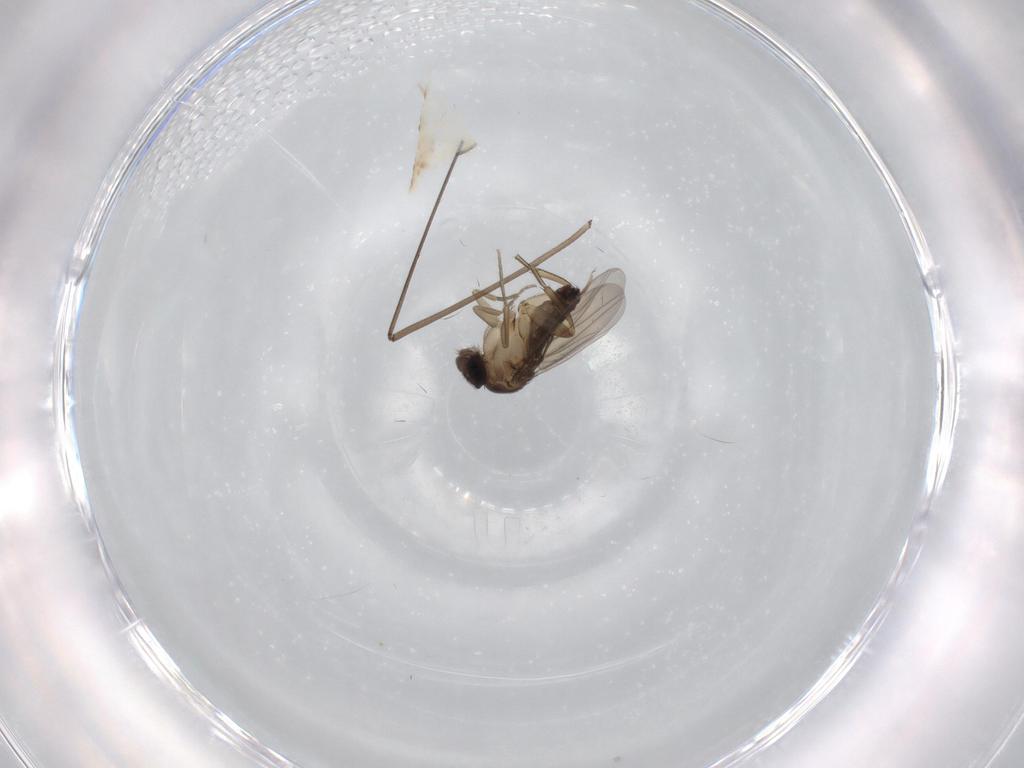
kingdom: Animalia
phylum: Arthropoda
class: Insecta
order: Diptera
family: Limoniidae
